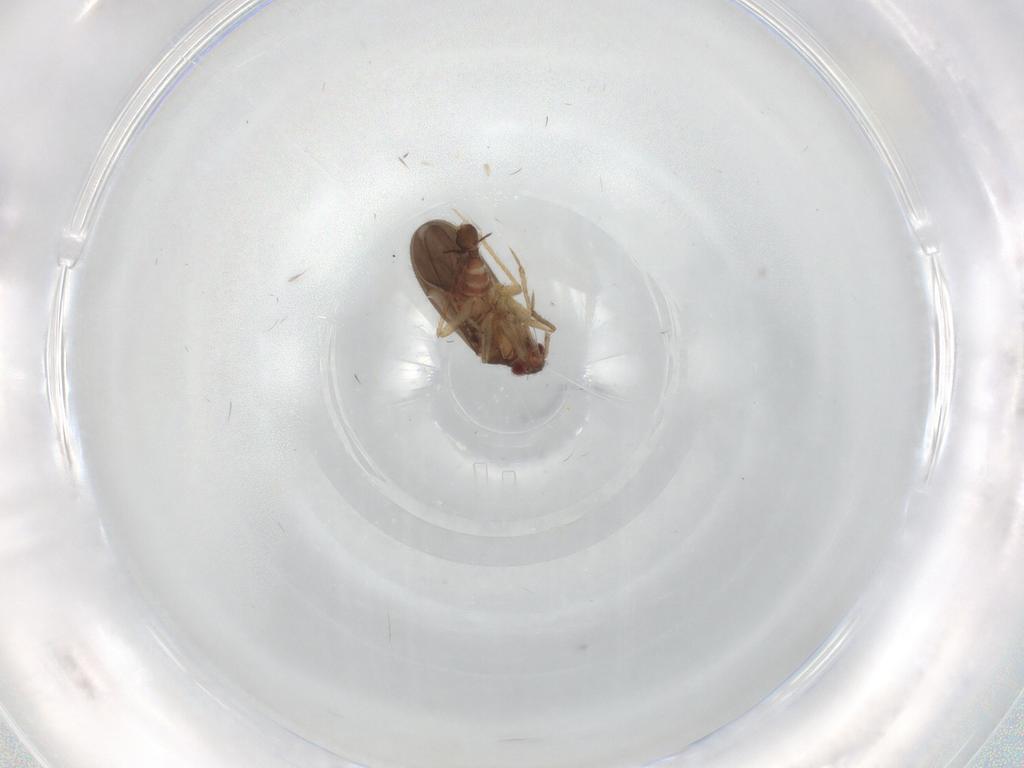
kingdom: Animalia
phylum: Arthropoda
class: Insecta
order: Hemiptera
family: Ceratocombidae
